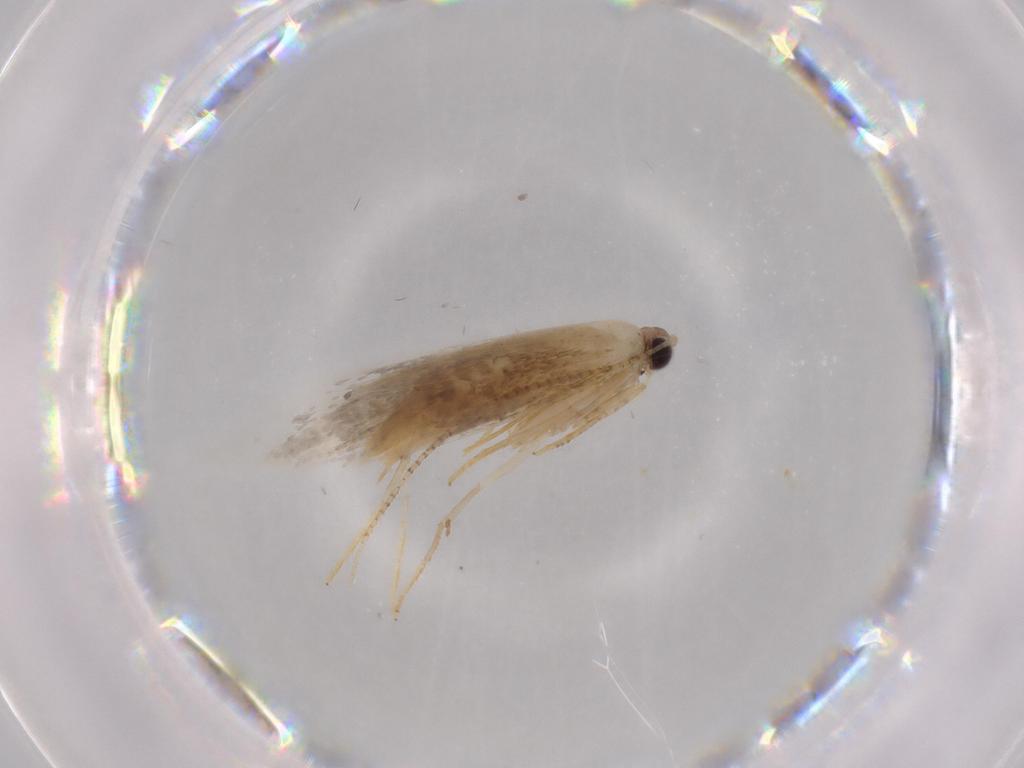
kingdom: Animalia
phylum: Arthropoda
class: Insecta
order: Lepidoptera
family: Tineidae
